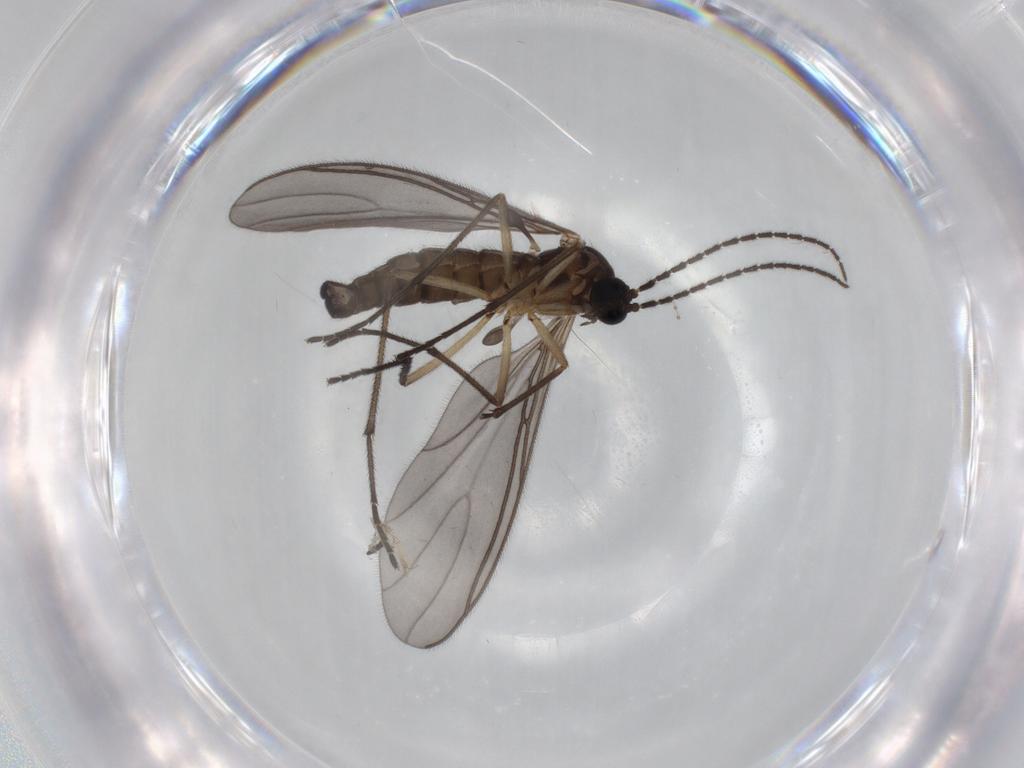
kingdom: Animalia
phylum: Arthropoda
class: Insecta
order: Diptera
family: Sciaridae
